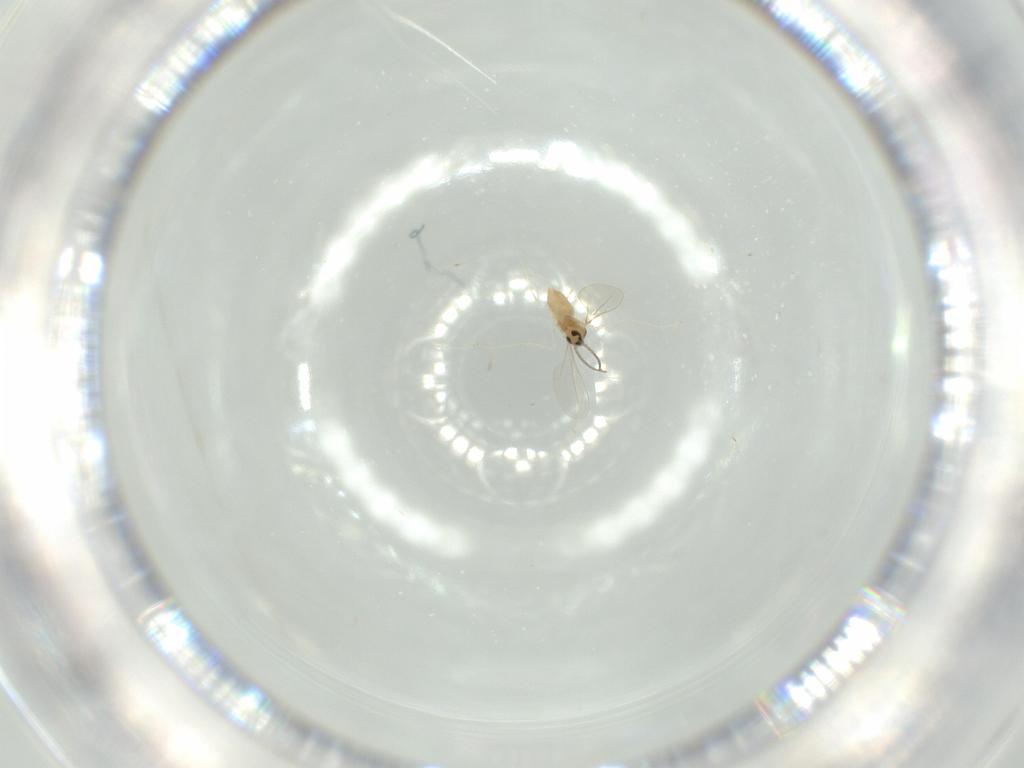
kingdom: Animalia
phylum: Arthropoda
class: Insecta
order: Diptera
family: Sciaridae
